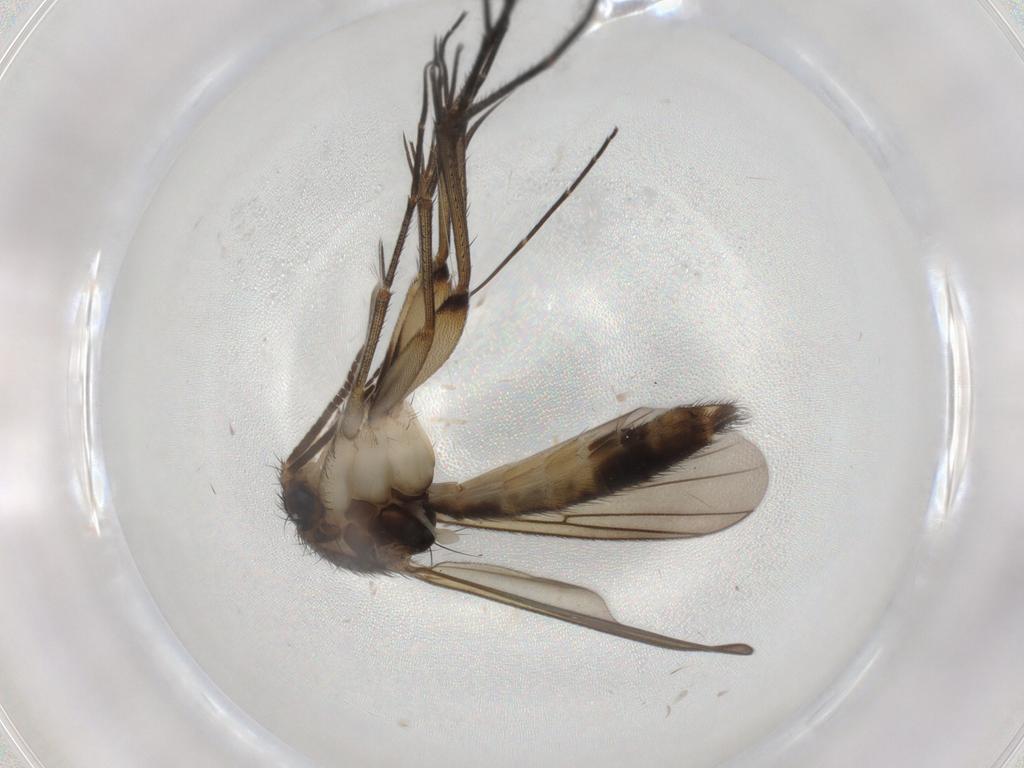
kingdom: Animalia
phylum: Arthropoda
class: Insecta
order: Diptera
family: Mycetophilidae
